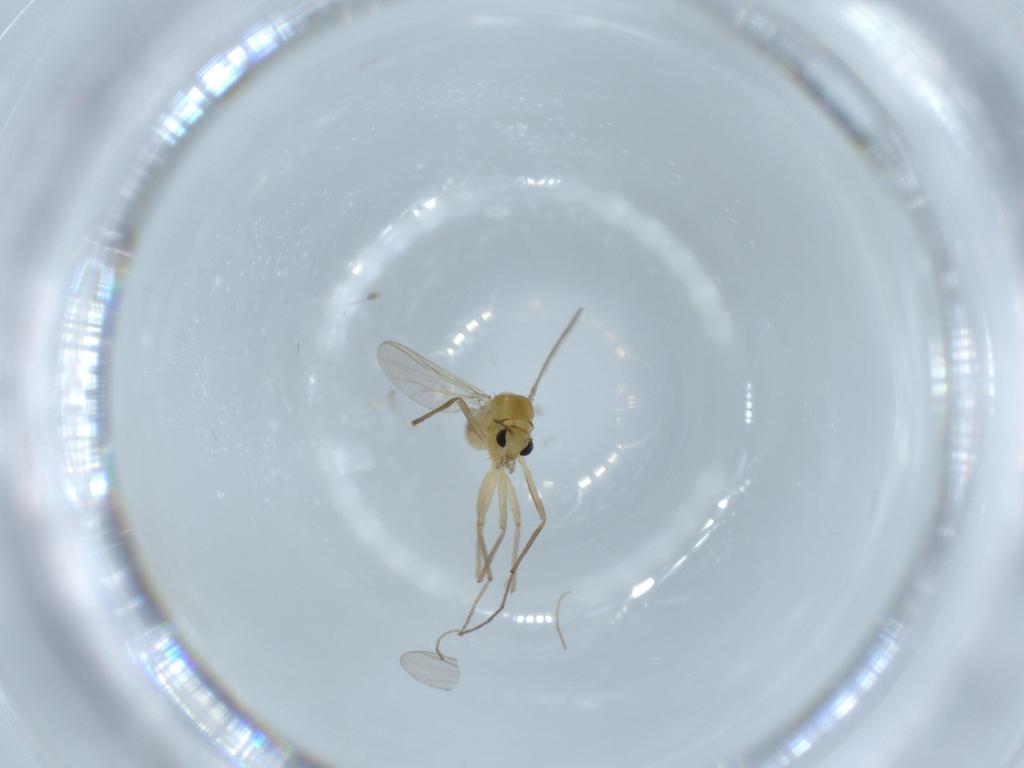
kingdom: Animalia
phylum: Arthropoda
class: Insecta
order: Diptera
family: Chironomidae
